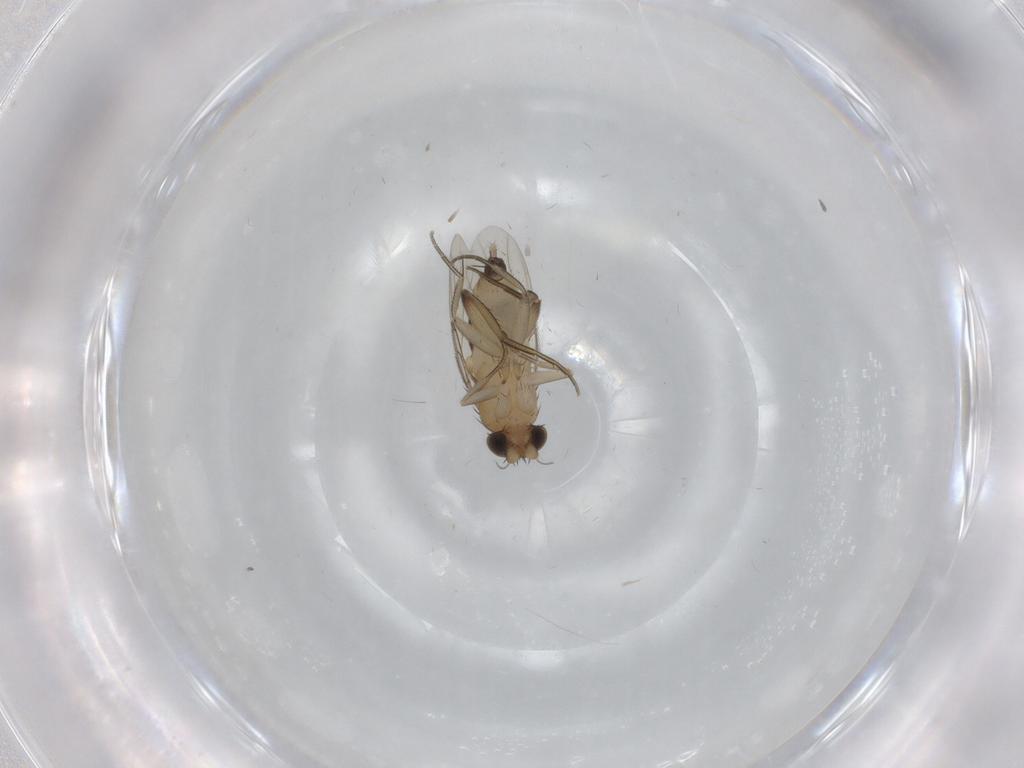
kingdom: Animalia
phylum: Arthropoda
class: Insecta
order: Diptera
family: Phoridae
